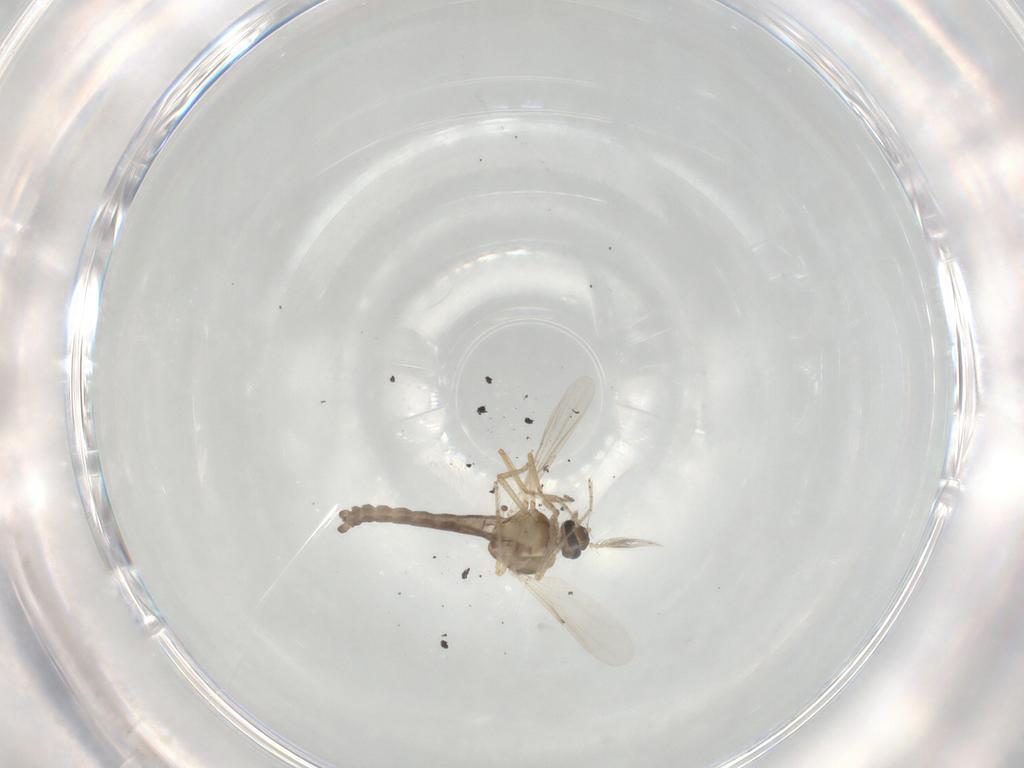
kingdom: Animalia
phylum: Arthropoda
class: Insecta
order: Diptera
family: Ceratopogonidae
